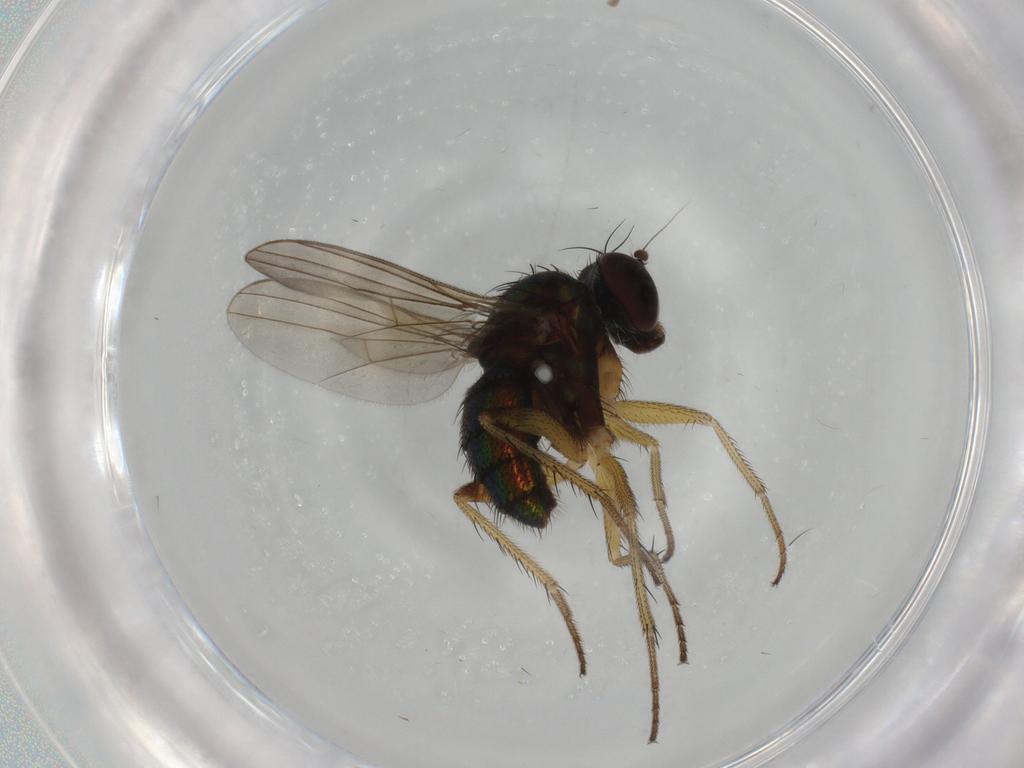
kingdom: Animalia
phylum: Arthropoda
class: Insecta
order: Diptera
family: Dolichopodidae
